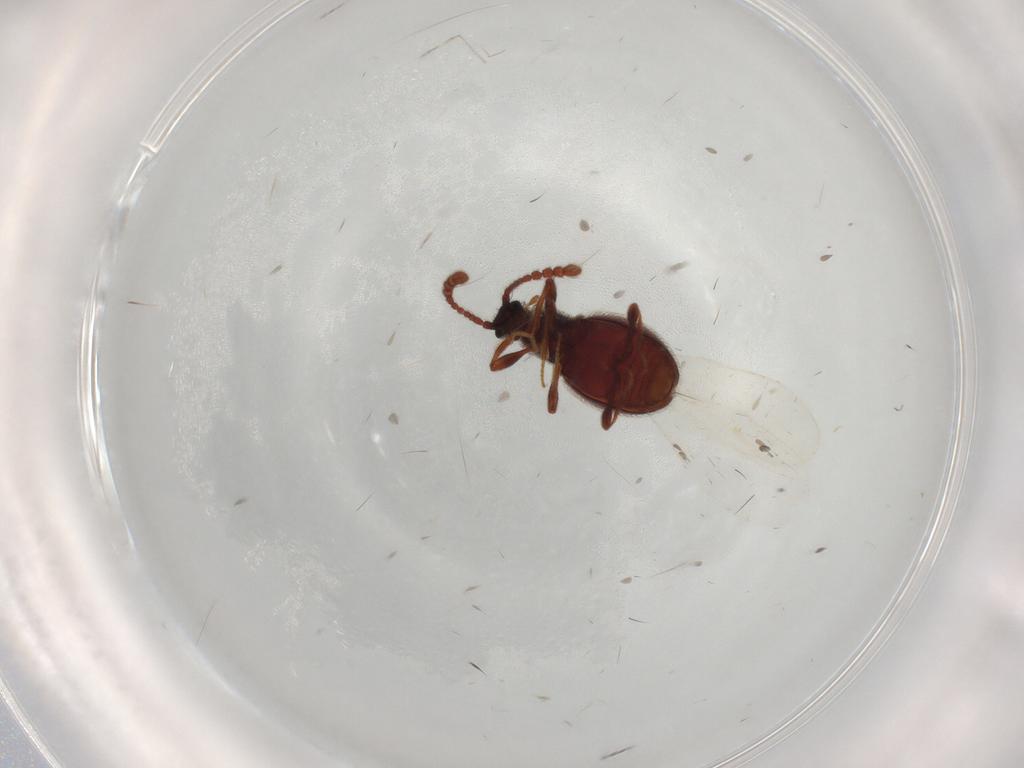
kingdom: Animalia
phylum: Arthropoda
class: Insecta
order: Coleoptera
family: Staphylinidae
